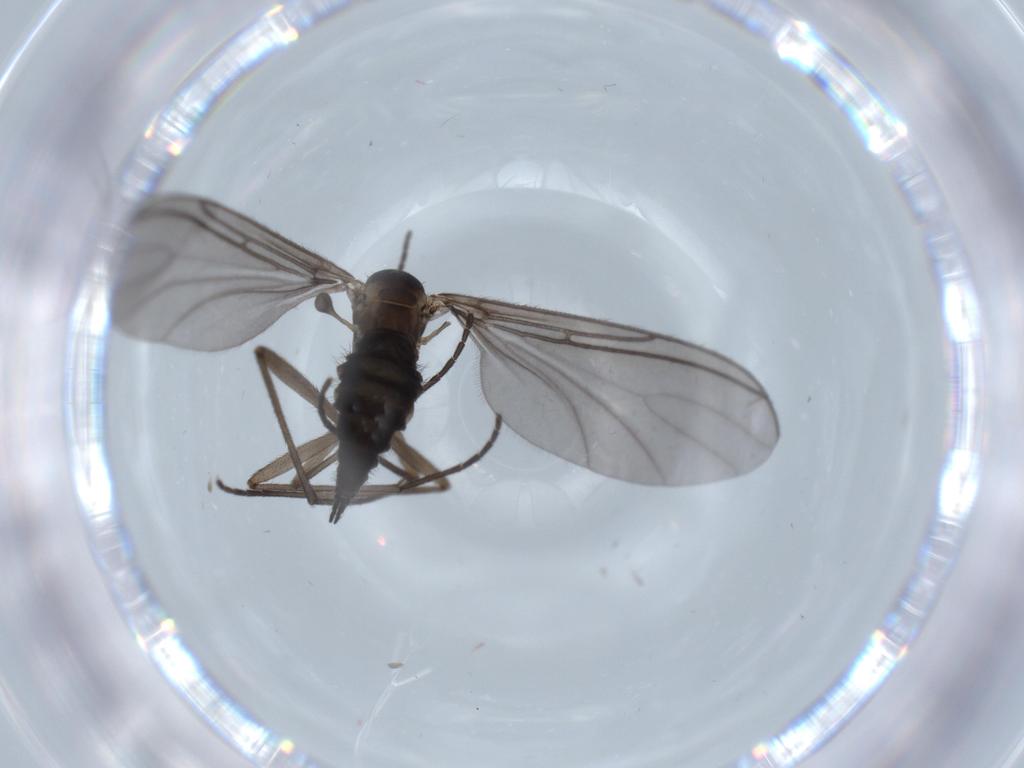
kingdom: Animalia
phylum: Arthropoda
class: Insecta
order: Diptera
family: Sciaridae
